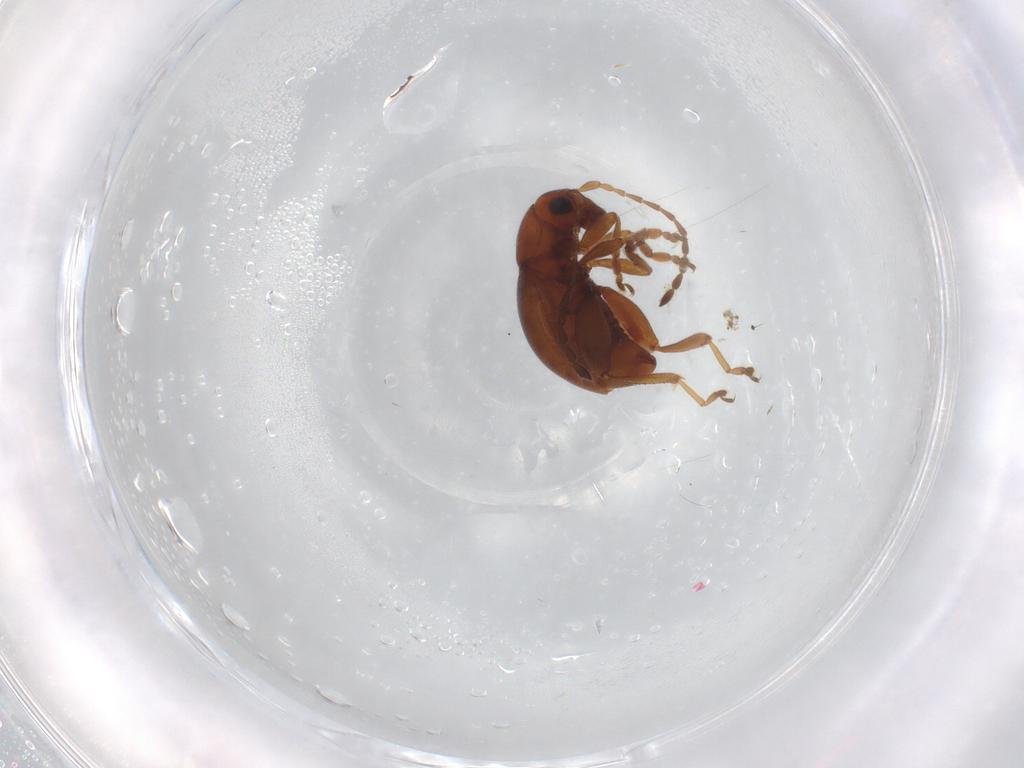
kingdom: Animalia
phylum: Arthropoda
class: Insecta
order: Coleoptera
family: Chrysomelidae
